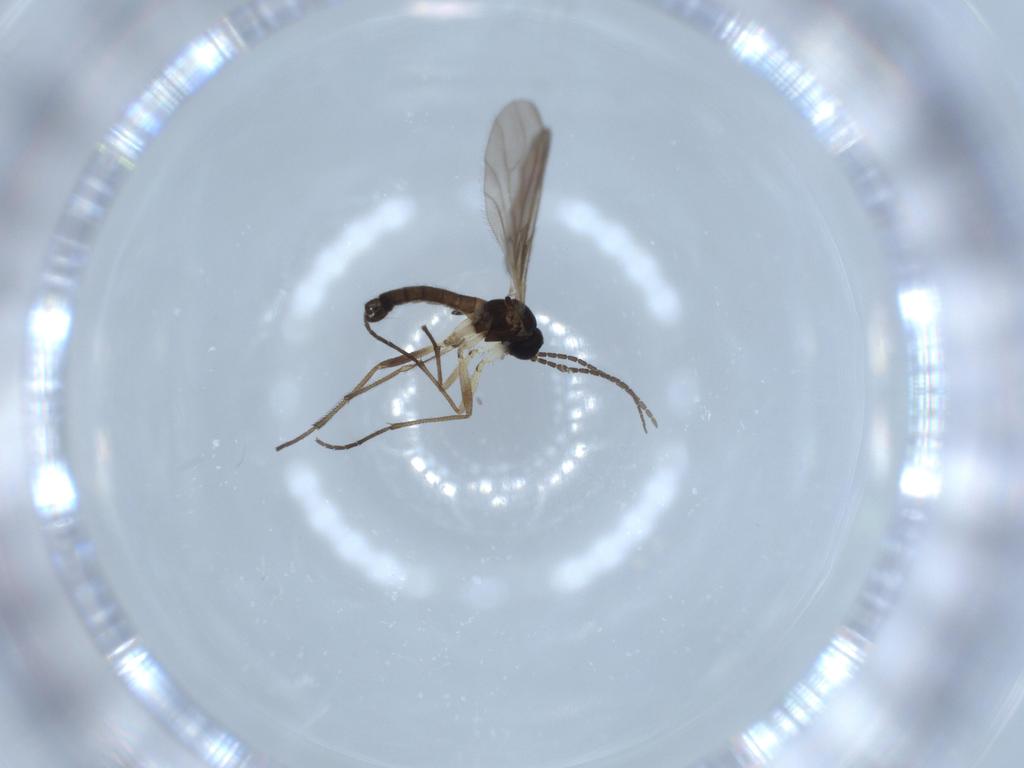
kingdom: Animalia
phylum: Arthropoda
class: Insecta
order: Diptera
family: Sciaridae
